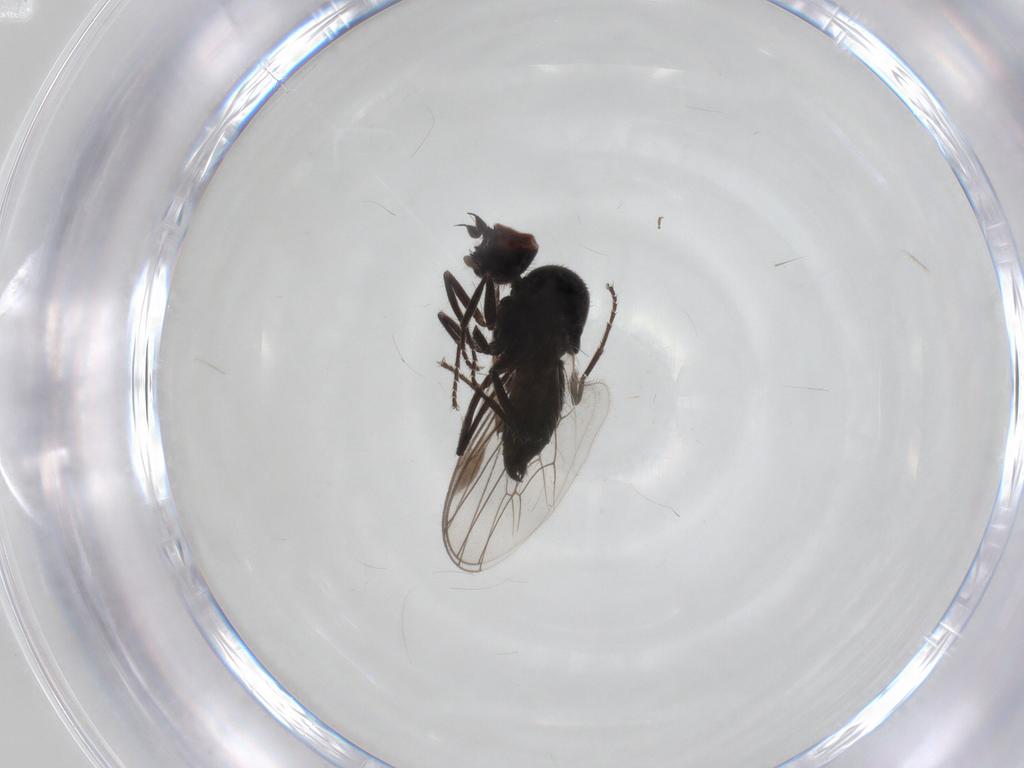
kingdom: Animalia
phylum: Arthropoda
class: Insecta
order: Diptera
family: Hybotidae
